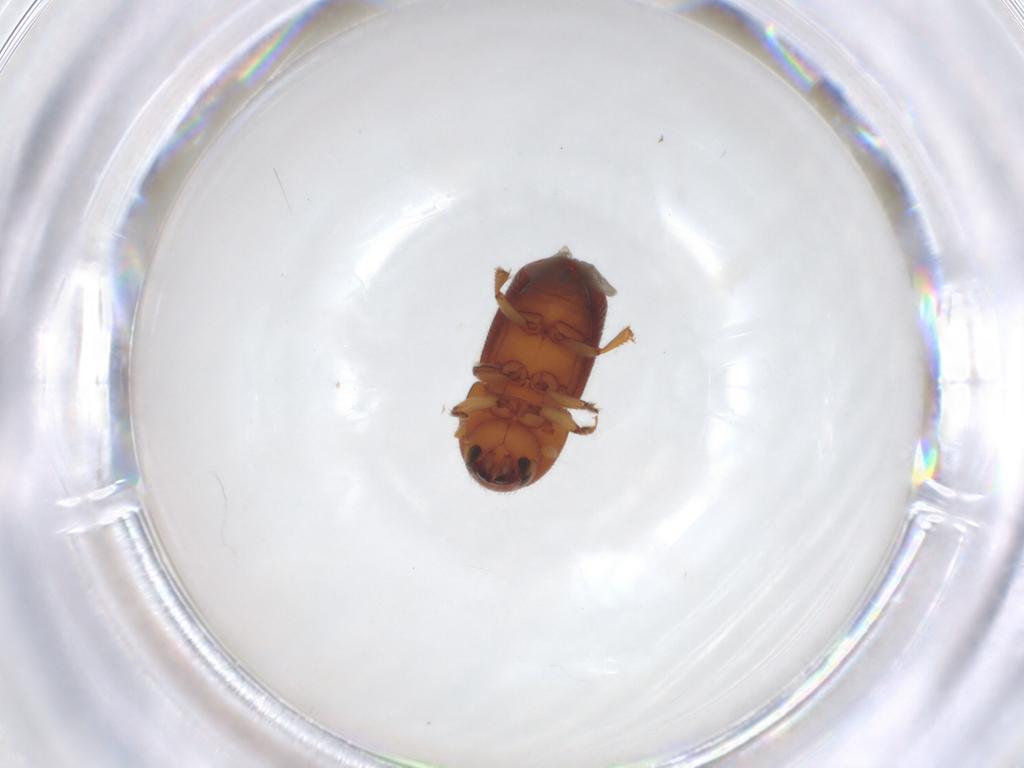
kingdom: Animalia
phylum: Arthropoda
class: Insecta
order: Coleoptera
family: Curculionidae
